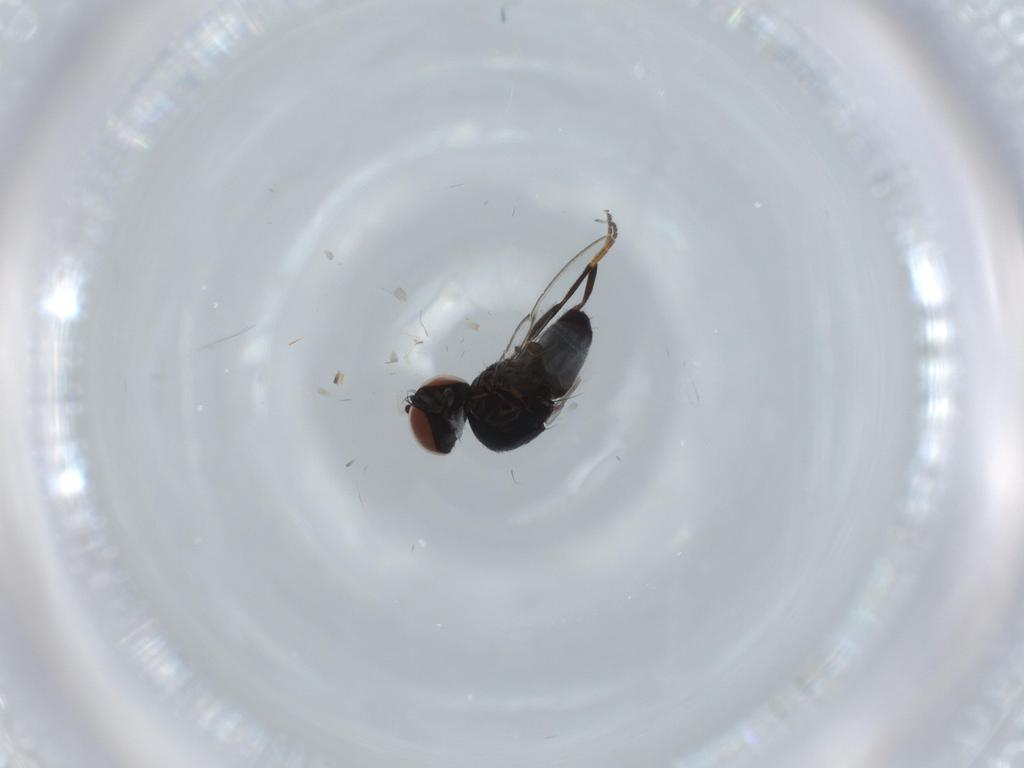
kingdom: Animalia
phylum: Arthropoda
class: Insecta
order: Diptera
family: Milichiidae
